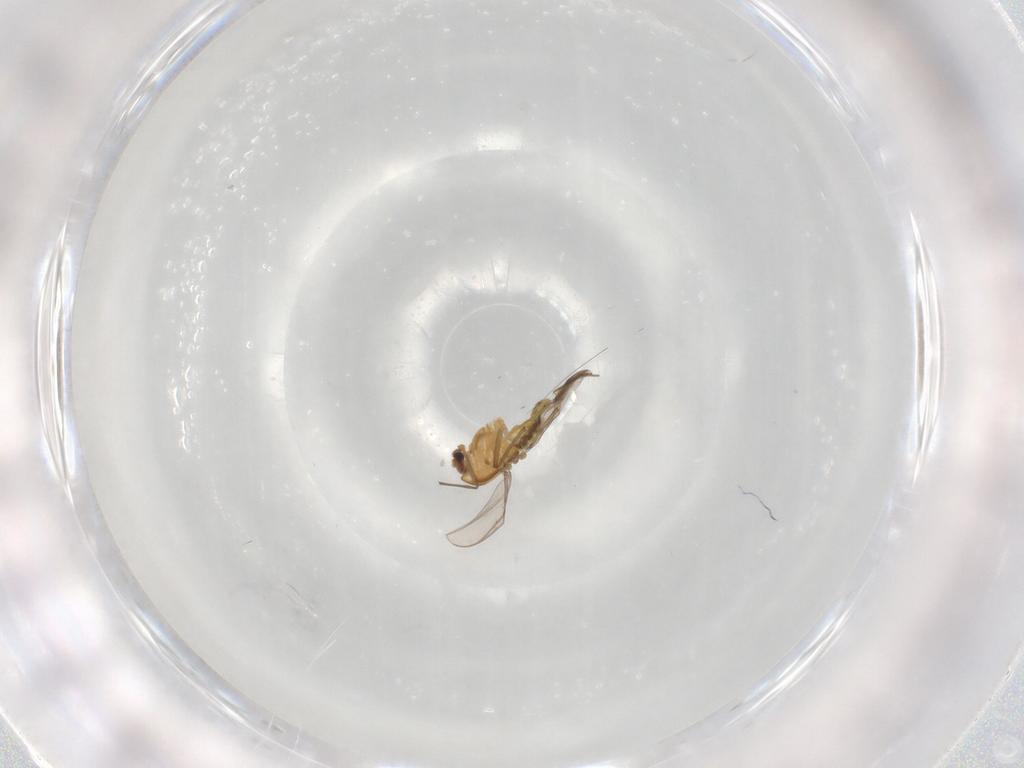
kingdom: Animalia
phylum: Arthropoda
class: Insecta
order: Diptera
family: Chironomidae
